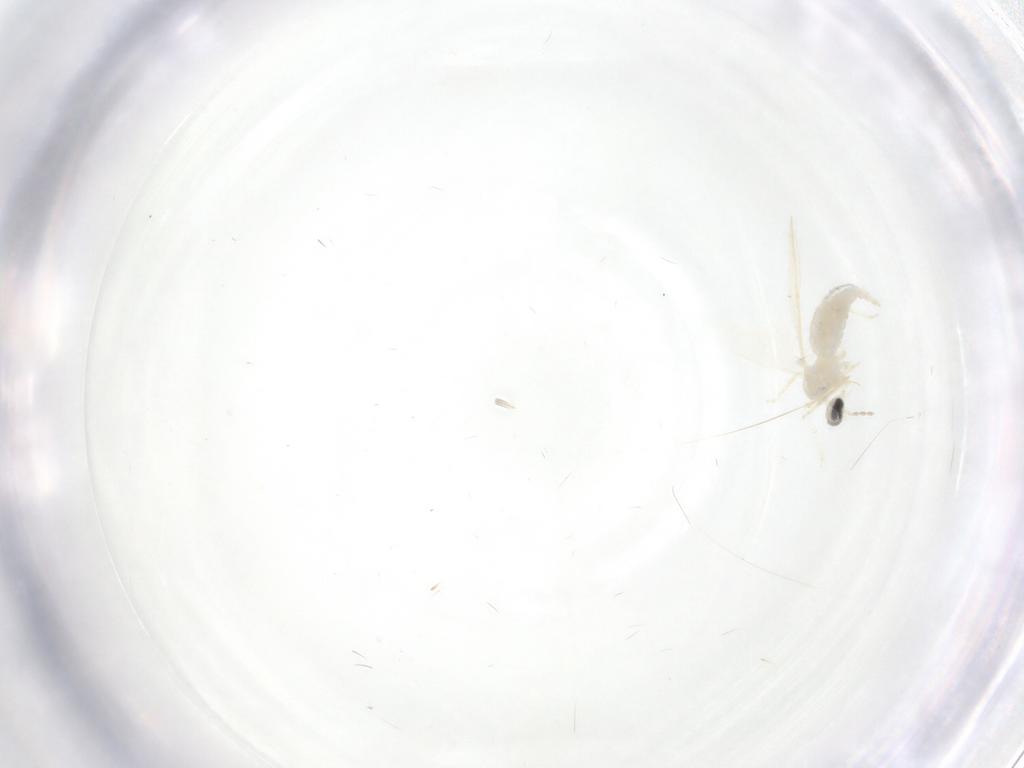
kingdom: Animalia
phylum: Arthropoda
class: Insecta
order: Diptera
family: Cecidomyiidae
